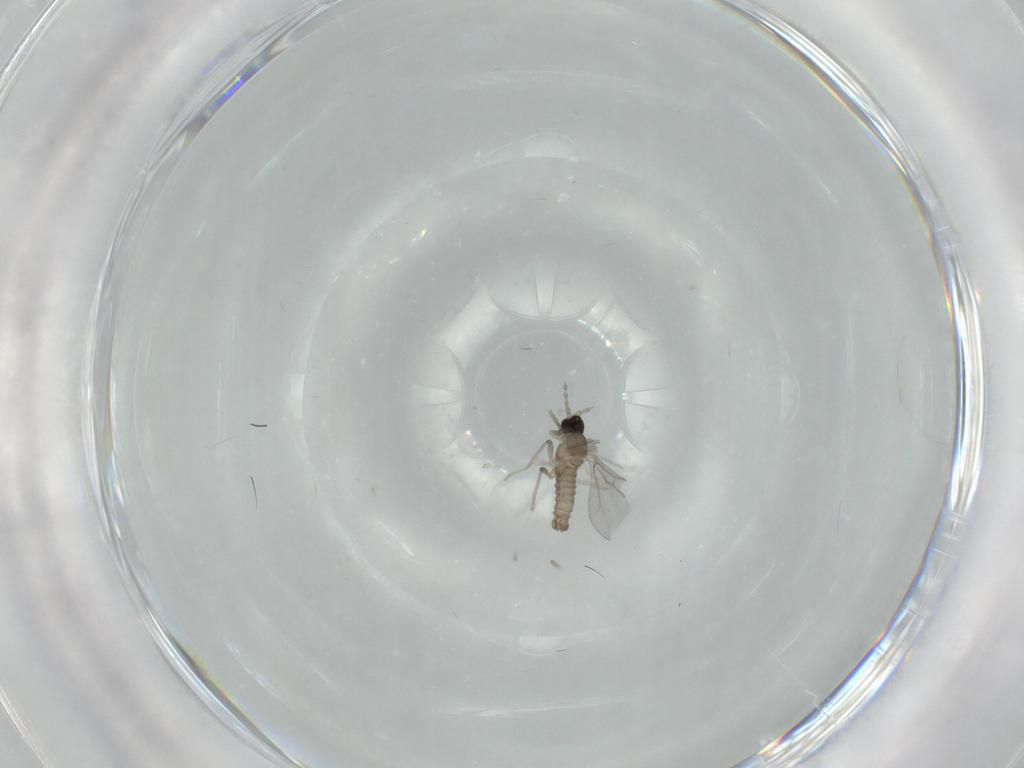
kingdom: Animalia
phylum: Arthropoda
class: Insecta
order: Diptera
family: Cecidomyiidae
